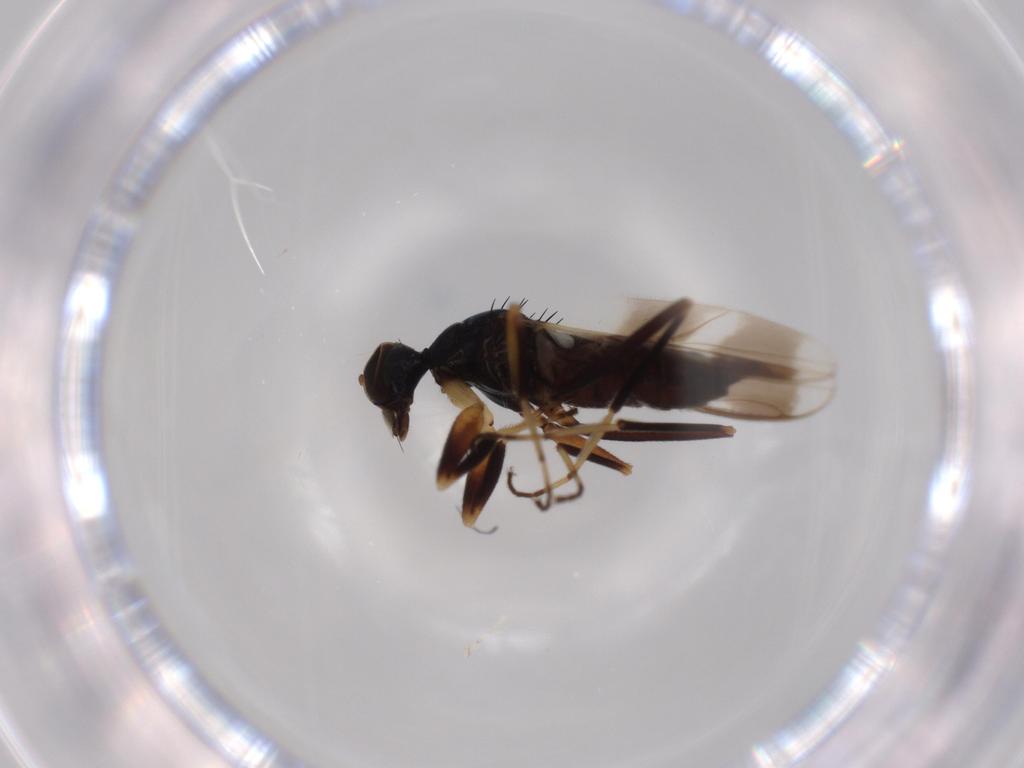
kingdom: Animalia
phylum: Arthropoda
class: Insecta
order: Diptera
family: Hybotidae
